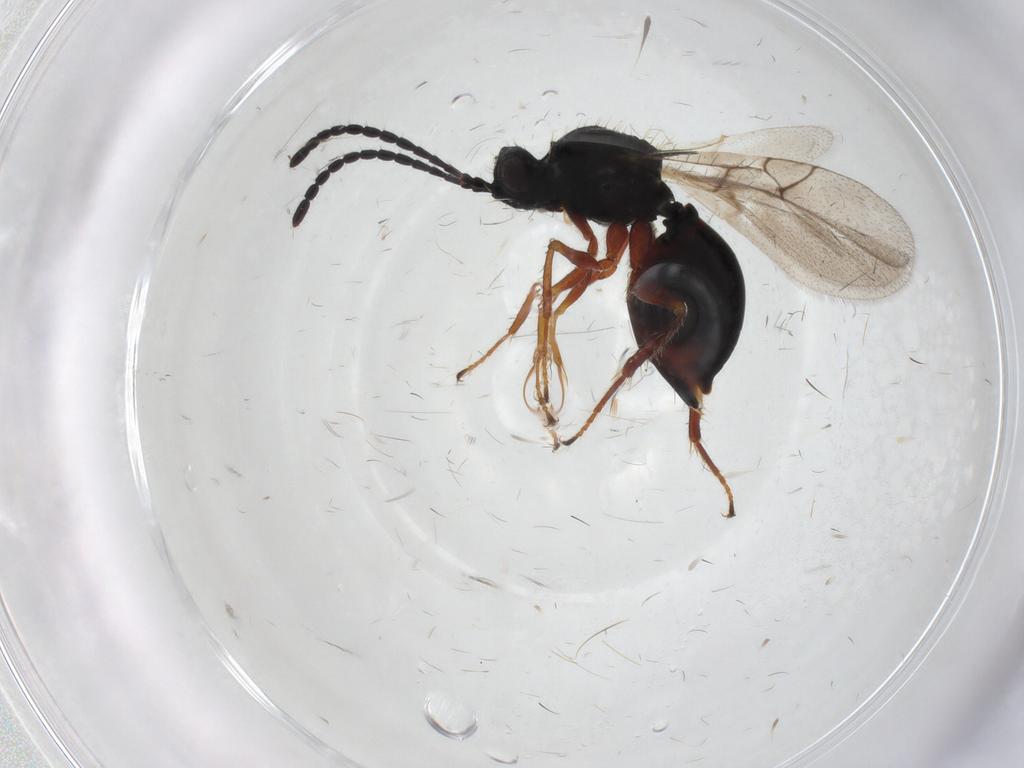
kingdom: Animalia
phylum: Arthropoda
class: Insecta
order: Hymenoptera
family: Figitidae
